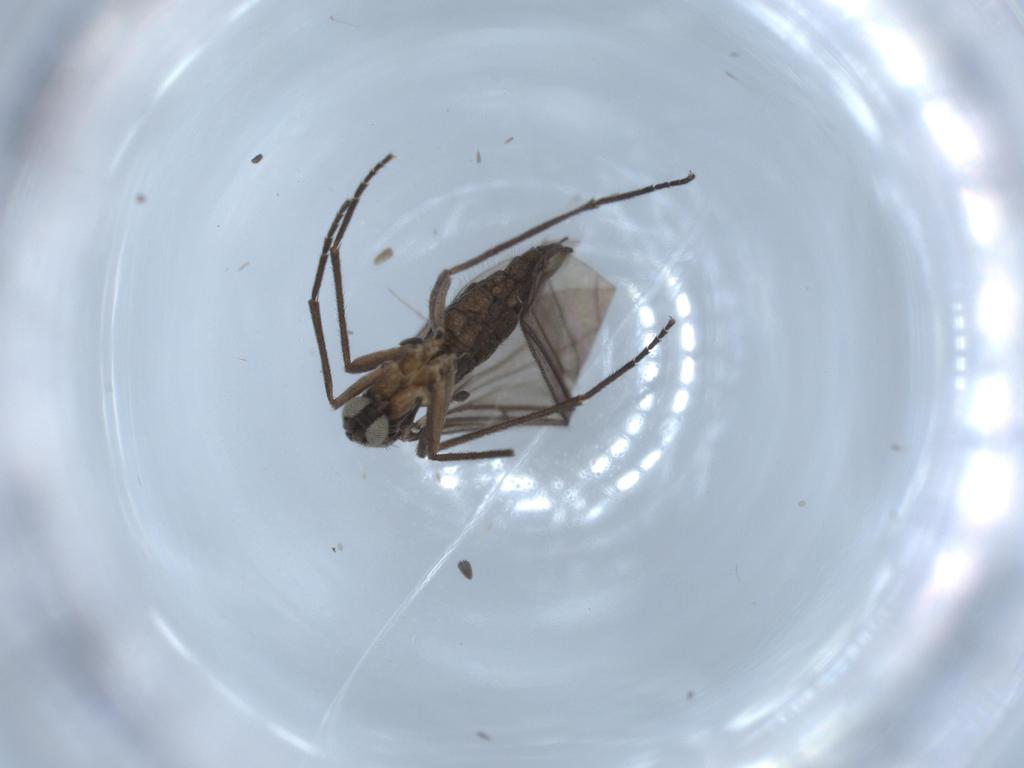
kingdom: Animalia
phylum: Arthropoda
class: Insecta
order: Diptera
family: Sciaridae
